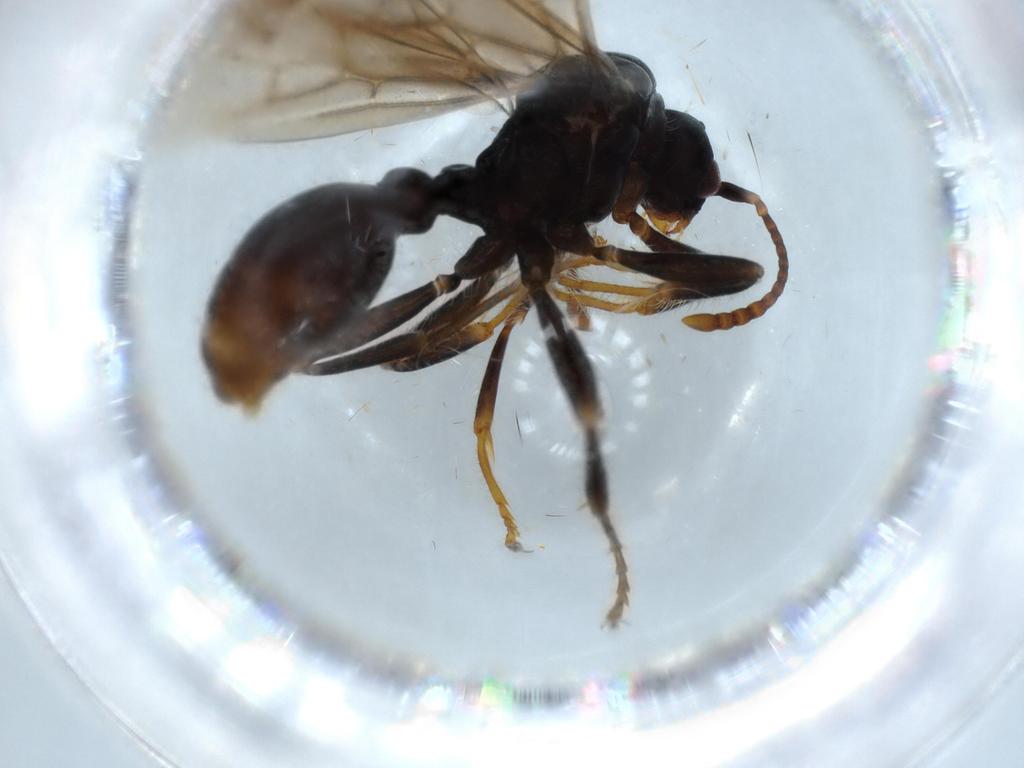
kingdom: Animalia
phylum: Arthropoda
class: Insecta
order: Hymenoptera
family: Formicidae
